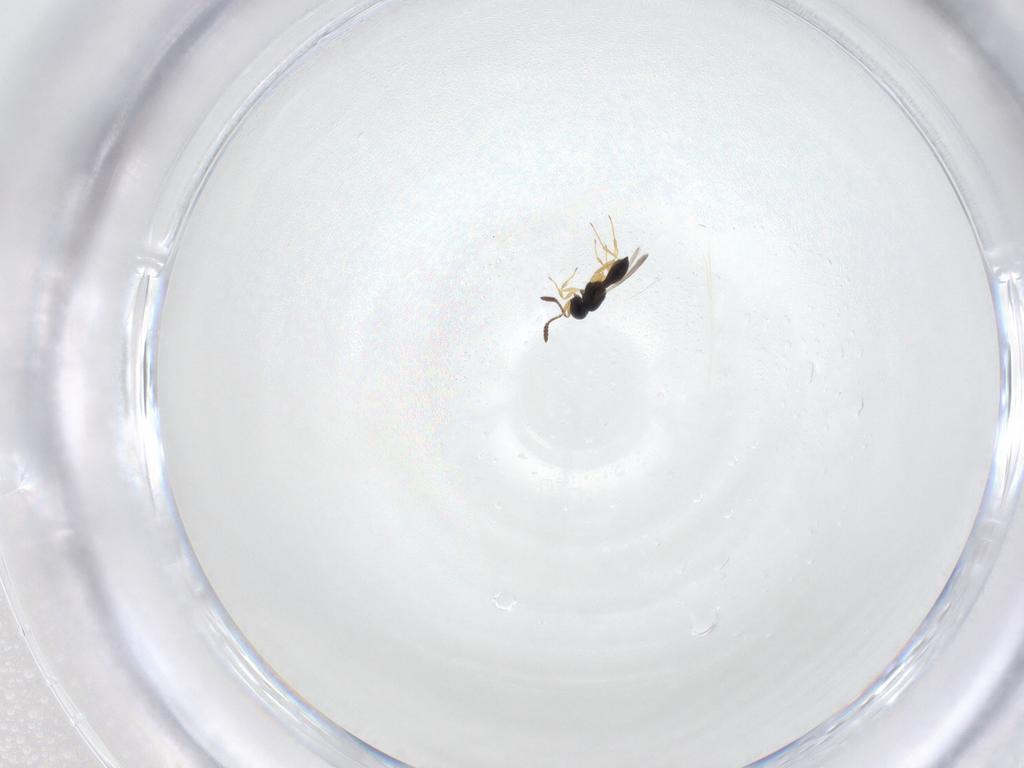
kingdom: Animalia
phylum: Arthropoda
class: Insecta
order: Hymenoptera
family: Scelionidae
